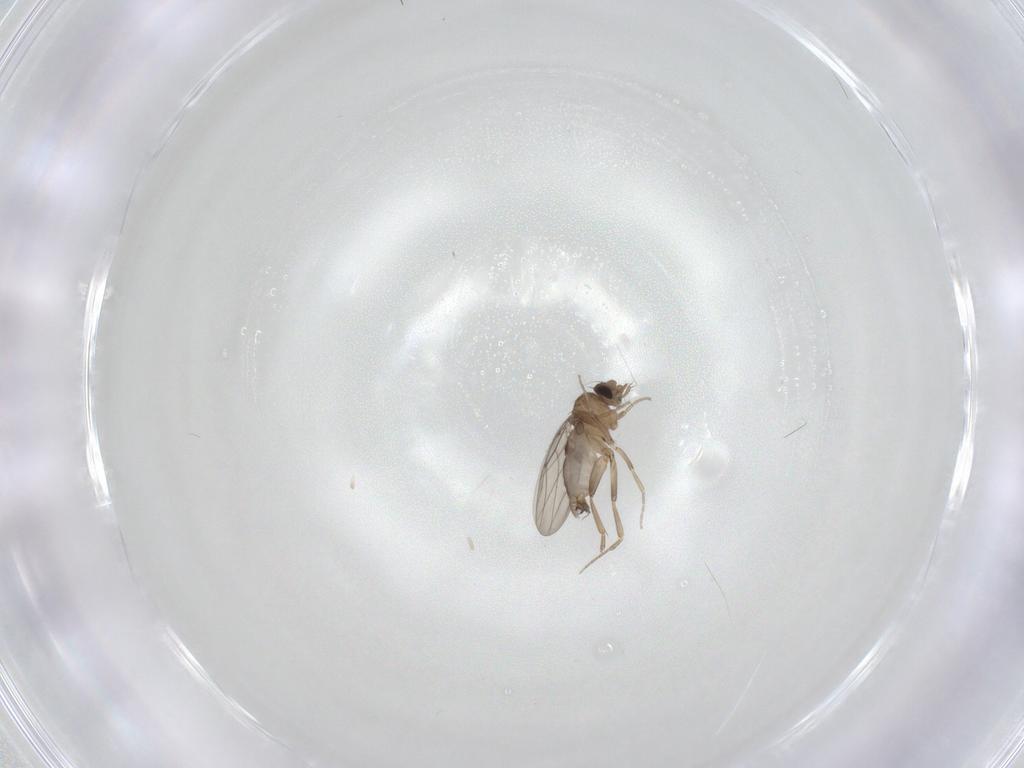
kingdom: Animalia
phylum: Arthropoda
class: Insecta
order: Diptera
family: Phoridae
